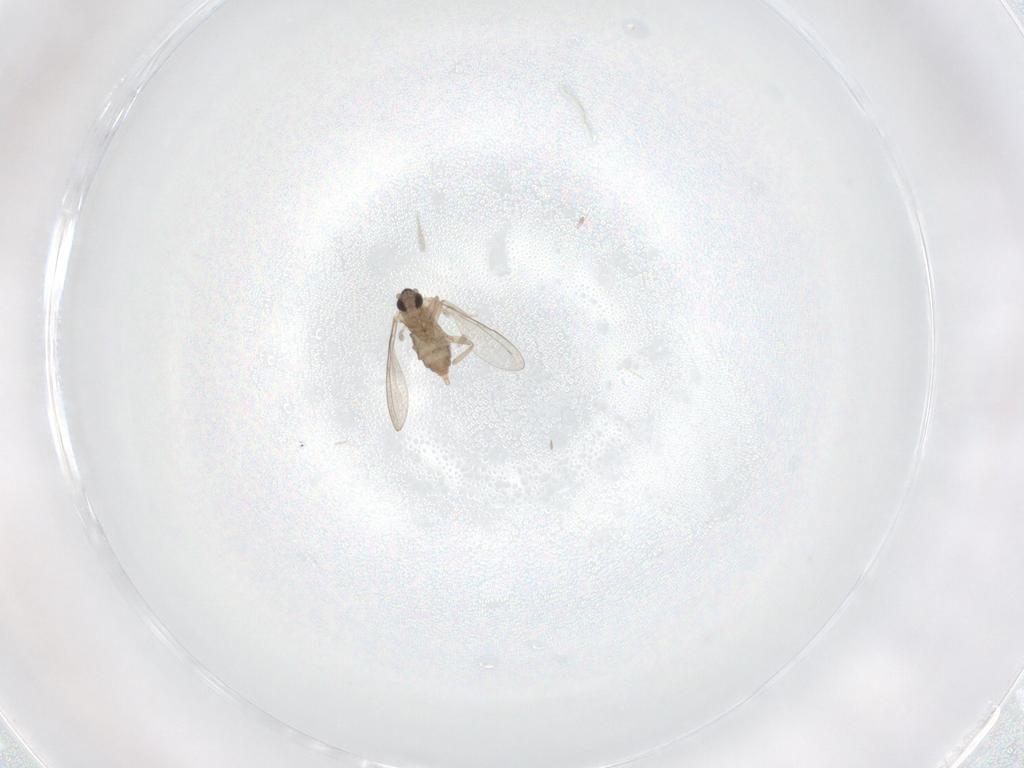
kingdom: Animalia
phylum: Arthropoda
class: Insecta
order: Diptera
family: Cecidomyiidae
